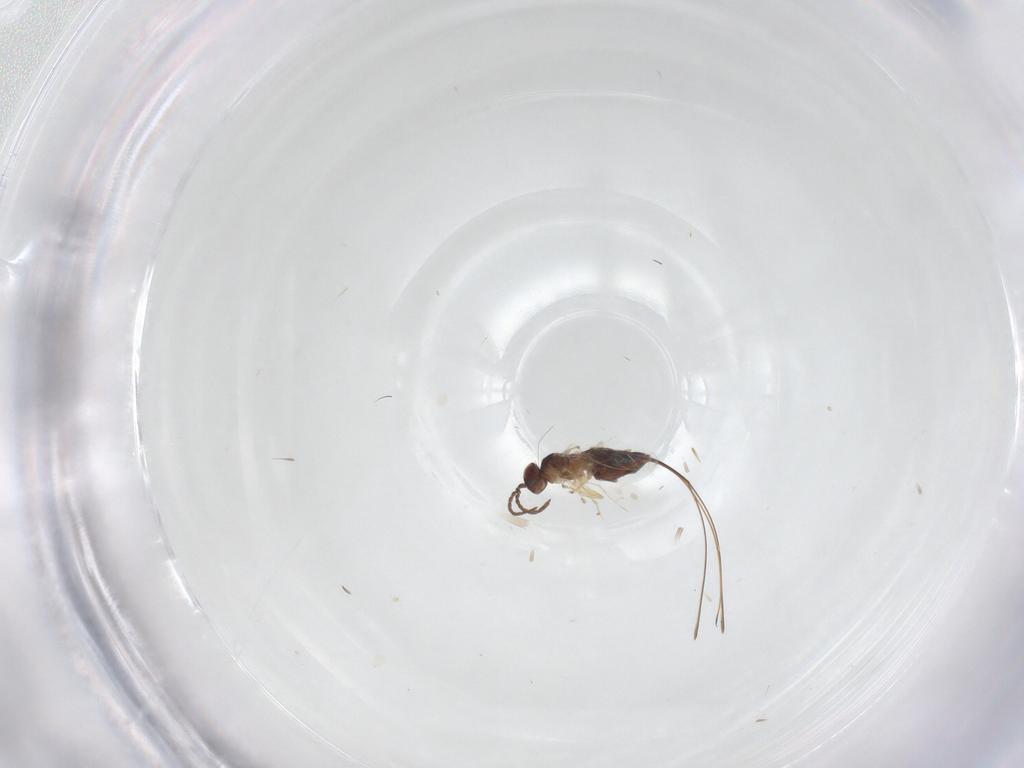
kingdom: Animalia
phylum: Arthropoda
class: Insecta
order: Hymenoptera
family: Pteromalidae
